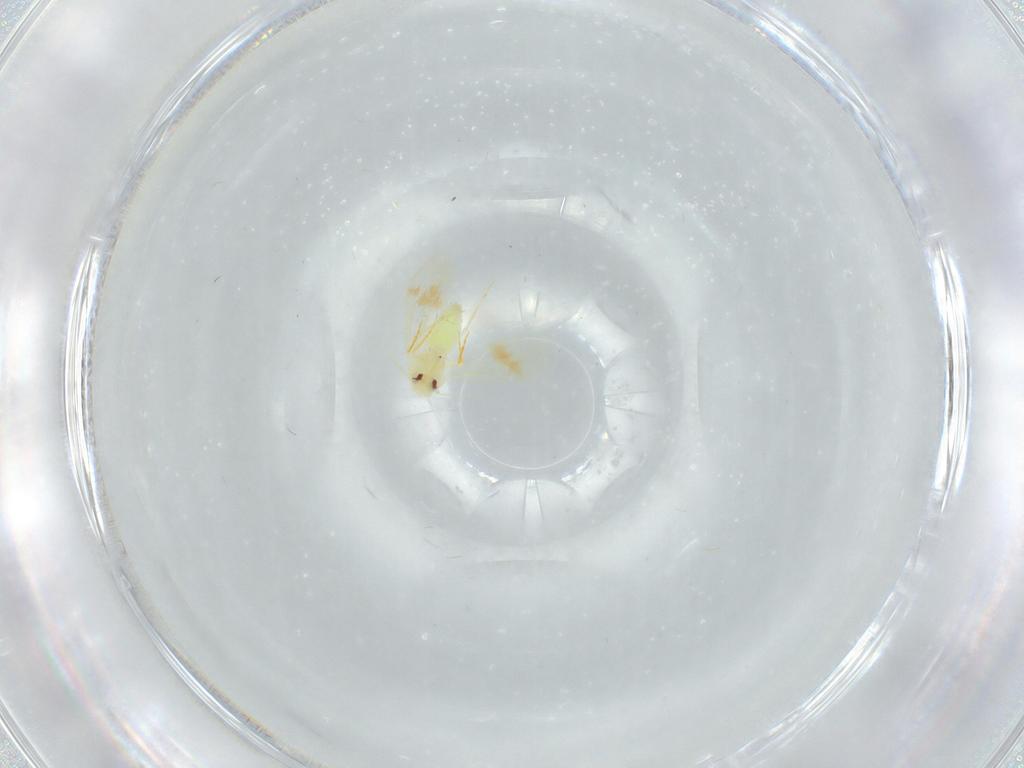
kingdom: Animalia
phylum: Arthropoda
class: Insecta
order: Hemiptera
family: Aleyrodidae
